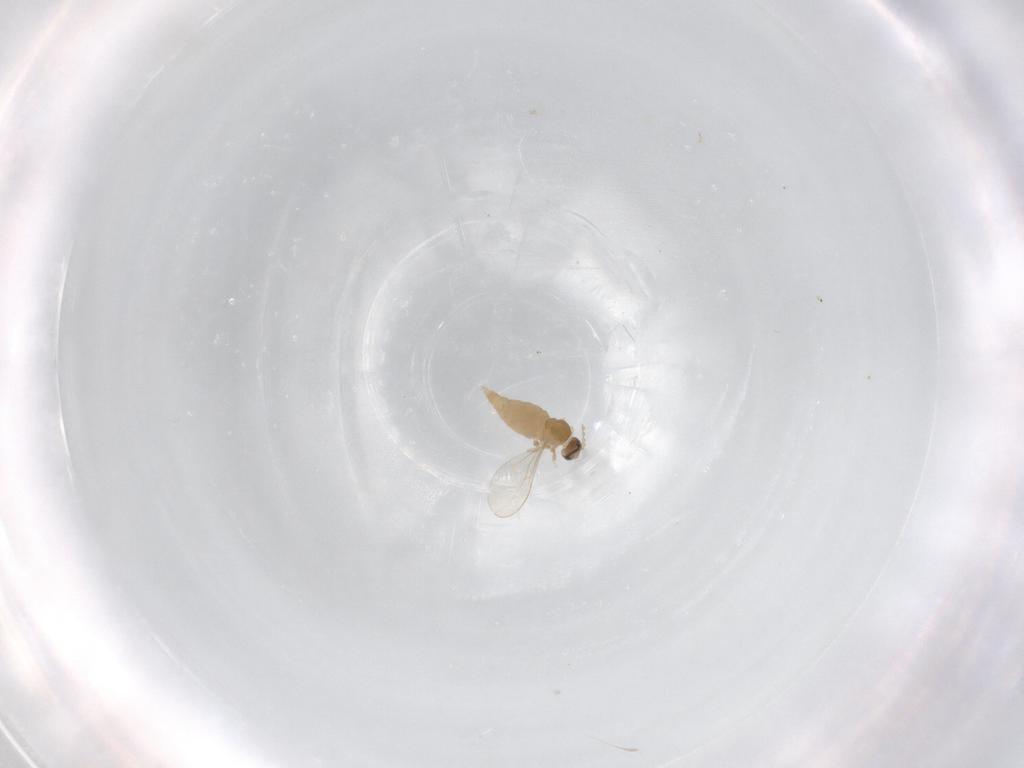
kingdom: Animalia
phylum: Arthropoda
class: Insecta
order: Diptera
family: Cecidomyiidae
